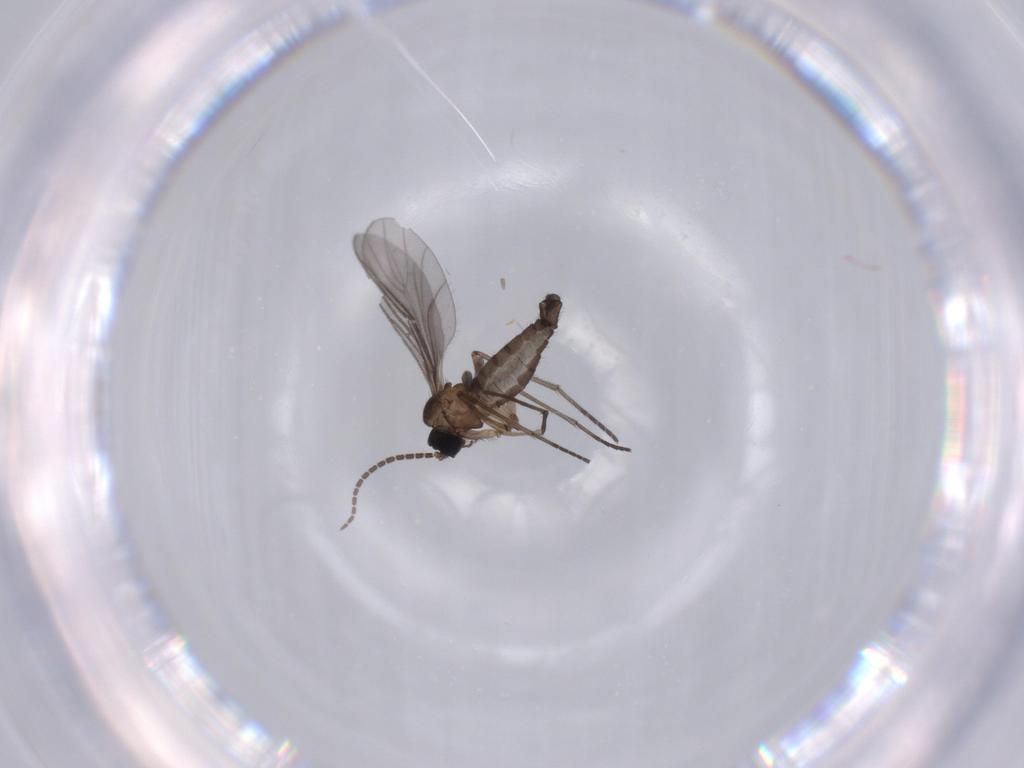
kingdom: Animalia
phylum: Arthropoda
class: Insecta
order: Diptera
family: Sciaridae
